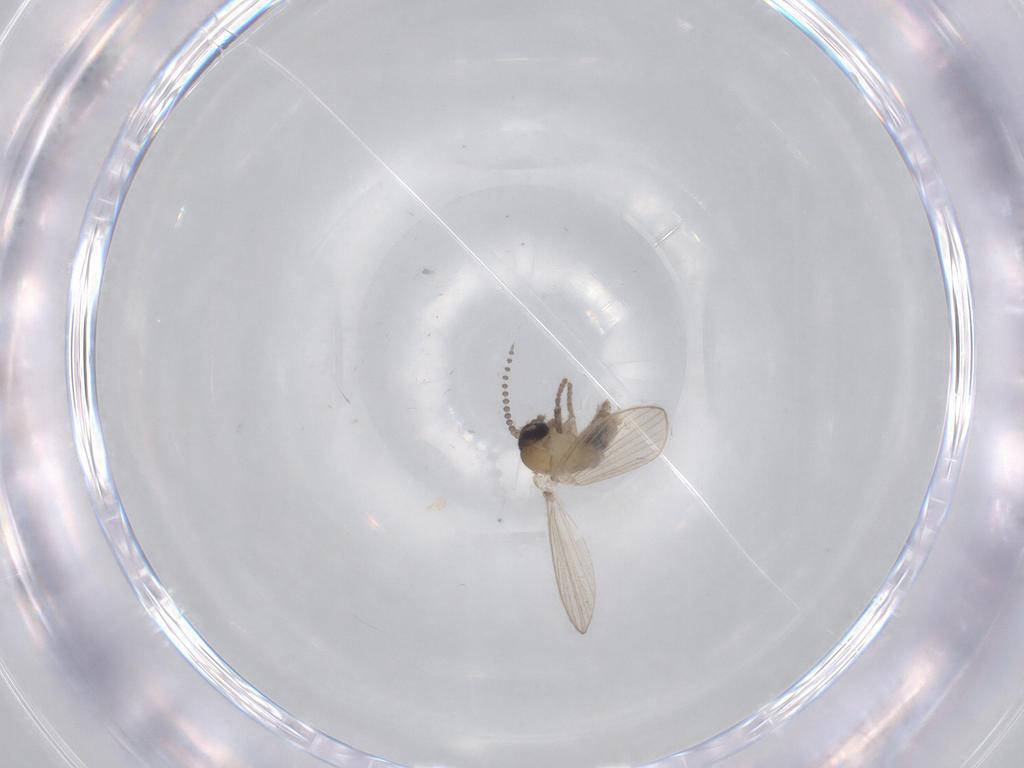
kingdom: Animalia
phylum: Arthropoda
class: Insecta
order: Diptera
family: Psychodidae
